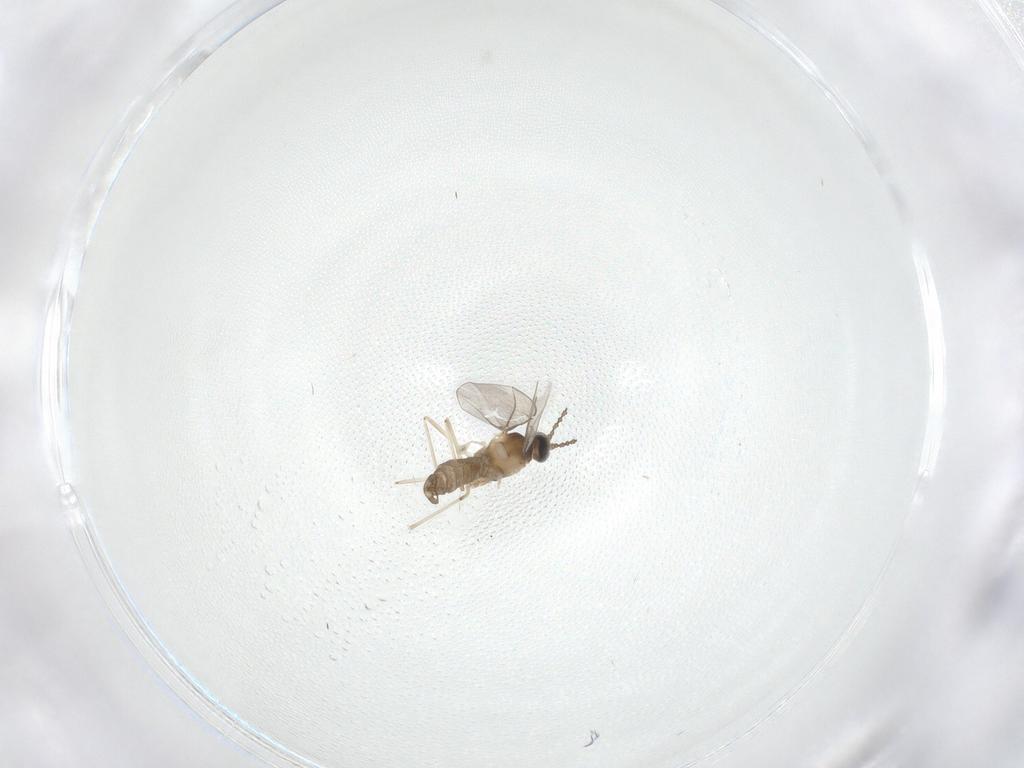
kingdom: Animalia
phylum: Arthropoda
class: Insecta
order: Diptera
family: Cecidomyiidae
